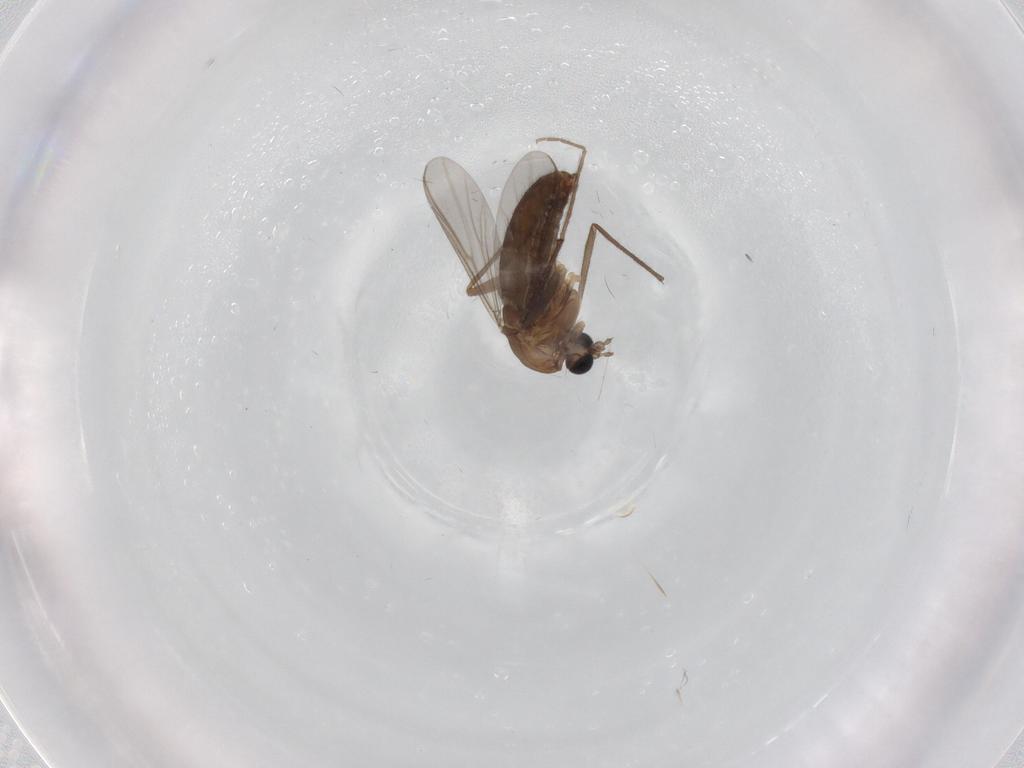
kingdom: Animalia
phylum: Arthropoda
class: Insecta
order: Diptera
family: Chironomidae
